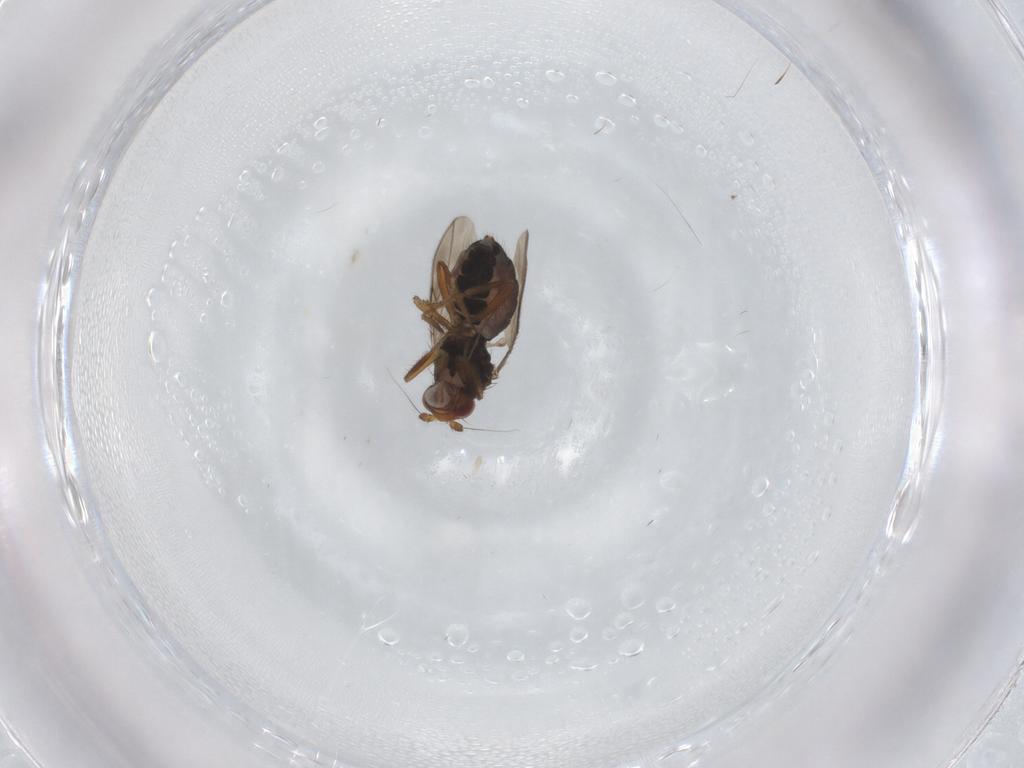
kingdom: Animalia
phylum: Arthropoda
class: Insecta
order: Diptera
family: Sphaeroceridae
